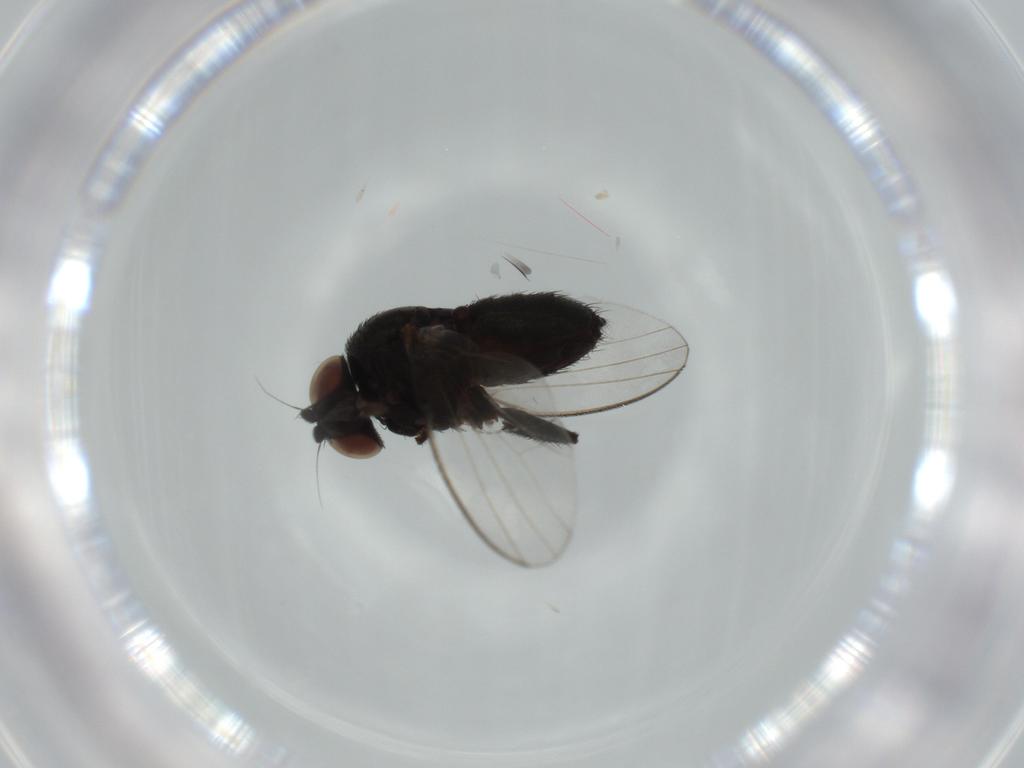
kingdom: Animalia
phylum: Arthropoda
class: Insecta
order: Diptera
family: Milichiidae
